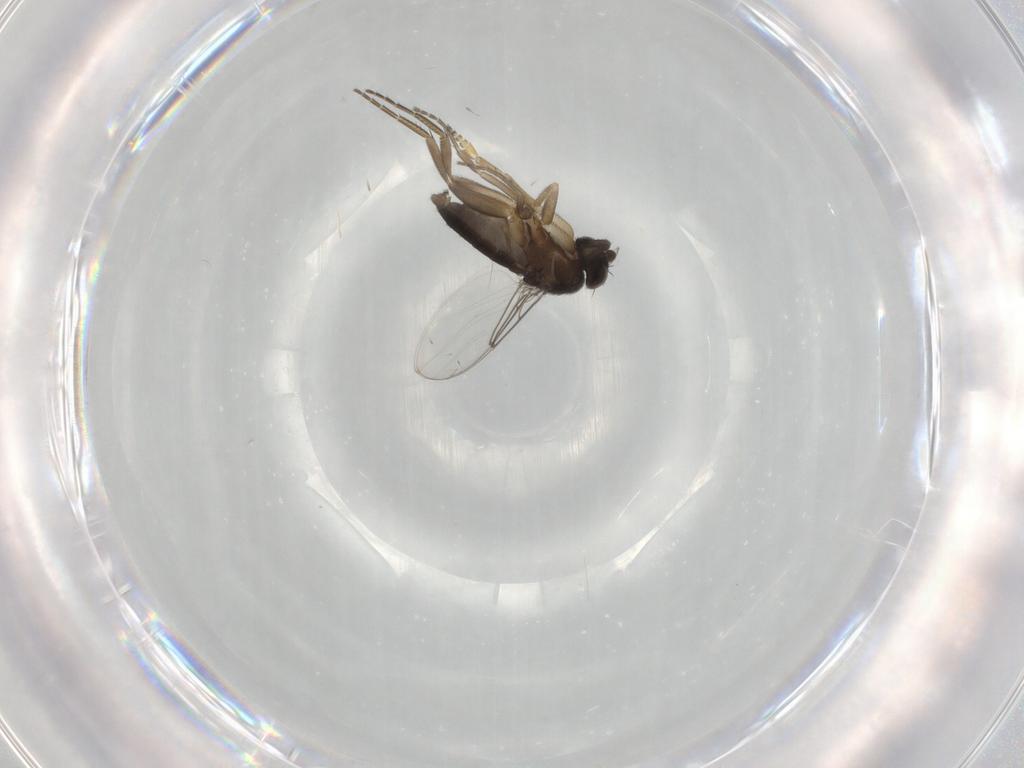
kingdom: Animalia
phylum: Arthropoda
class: Insecta
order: Diptera
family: Phoridae
